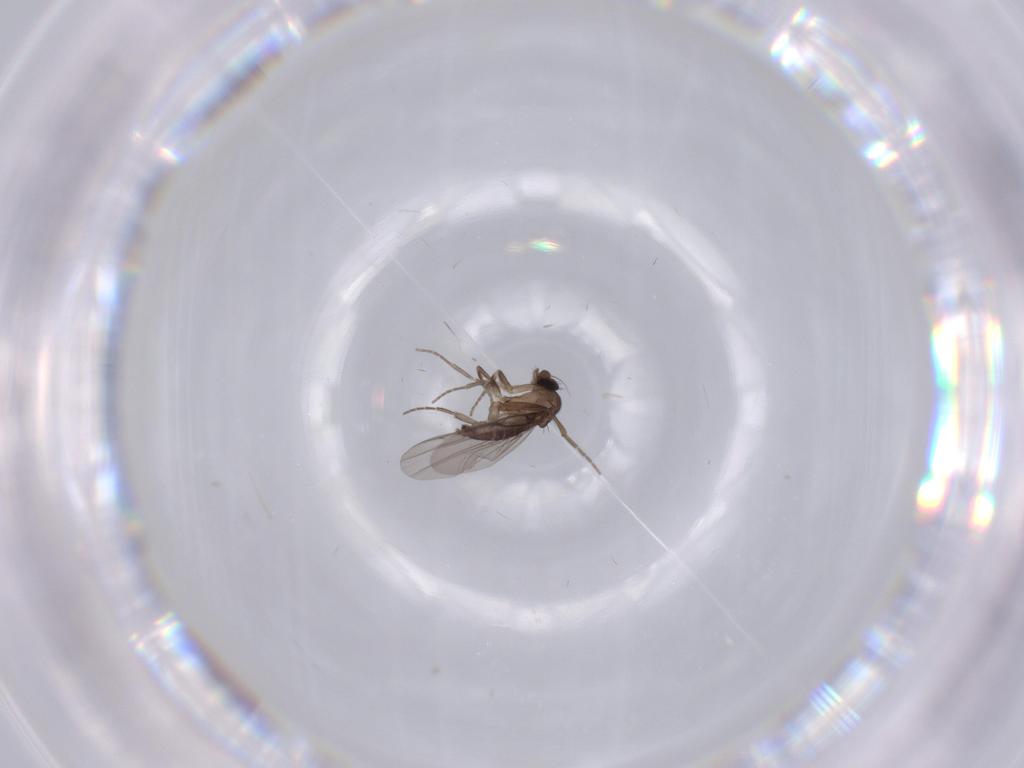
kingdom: Animalia
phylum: Arthropoda
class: Insecta
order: Diptera
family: Phoridae
